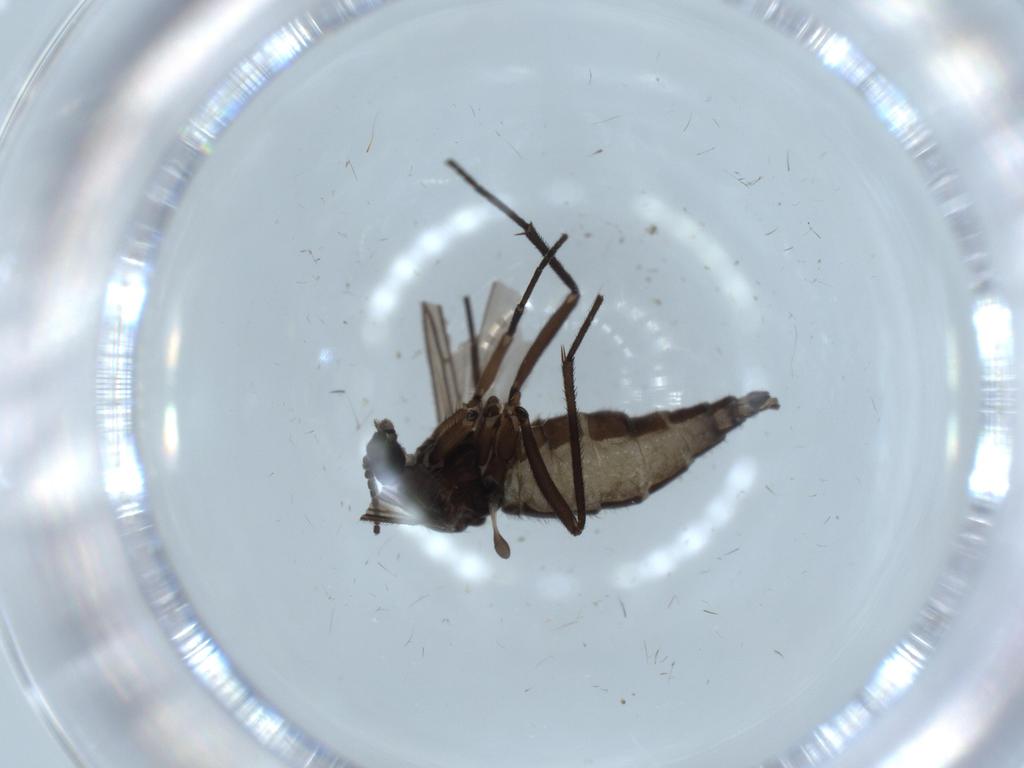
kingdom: Animalia
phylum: Arthropoda
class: Insecta
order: Diptera
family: Sciaridae
